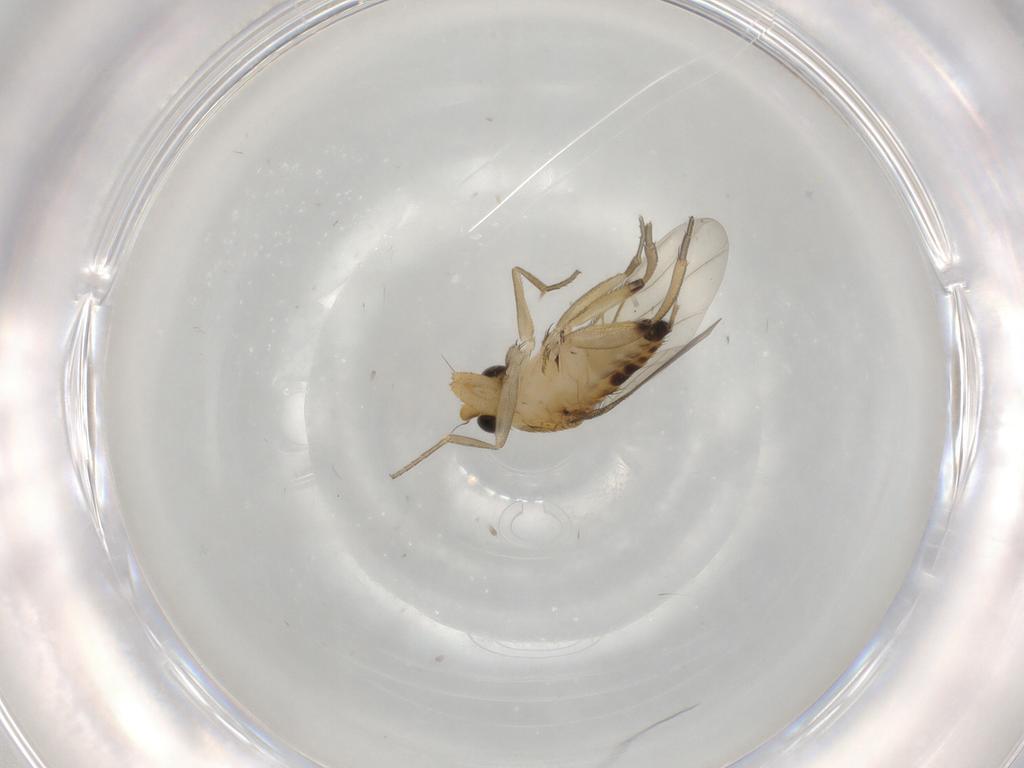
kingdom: Animalia
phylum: Arthropoda
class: Insecta
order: Diptera
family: Phoridae
